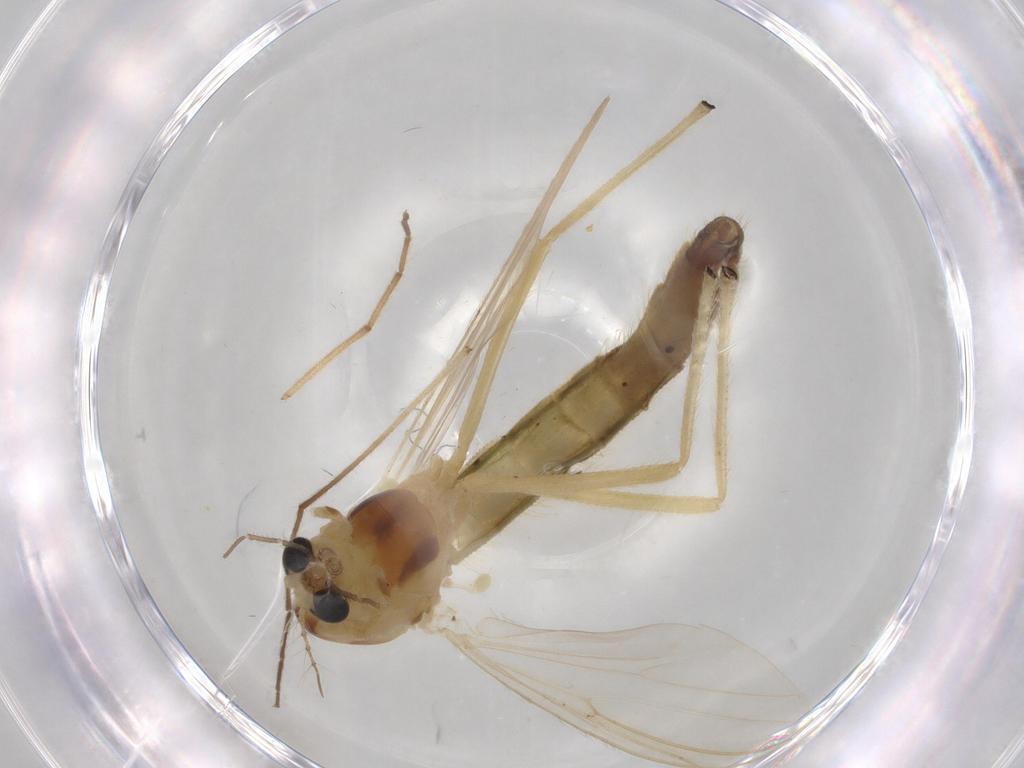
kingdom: Animalia
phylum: Arthropoda
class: Insecta
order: Diptera
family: Chironomidae
